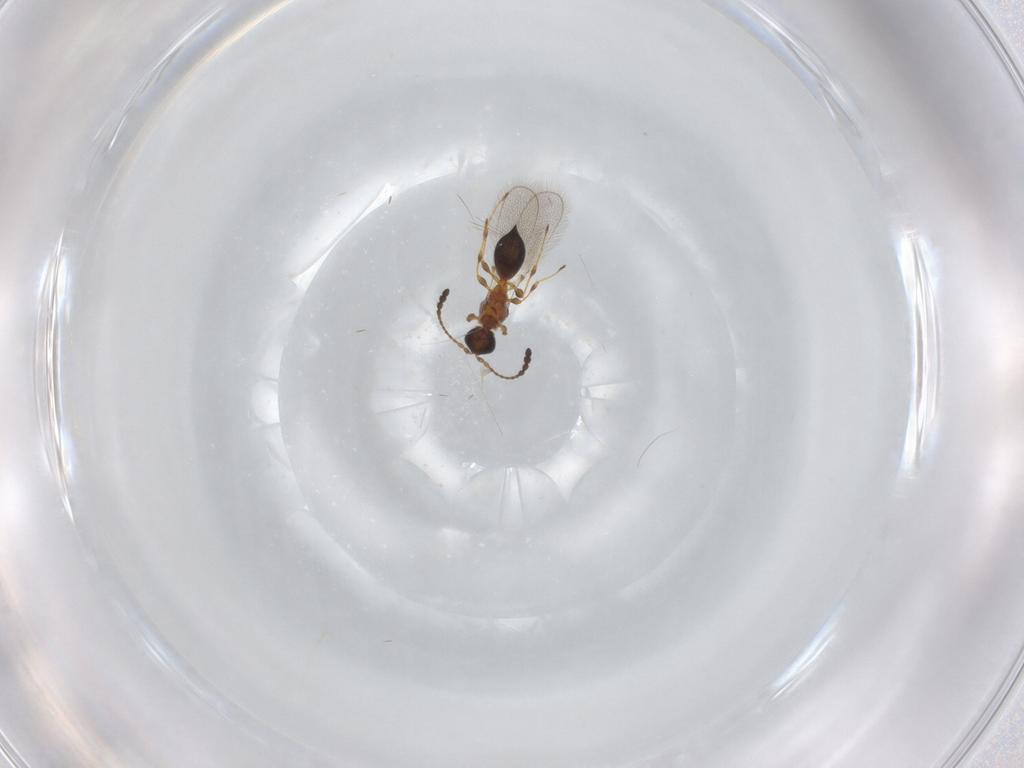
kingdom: Animalia
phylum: Arthropoda
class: Insecta
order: Hymenoptera
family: Diapriidae
